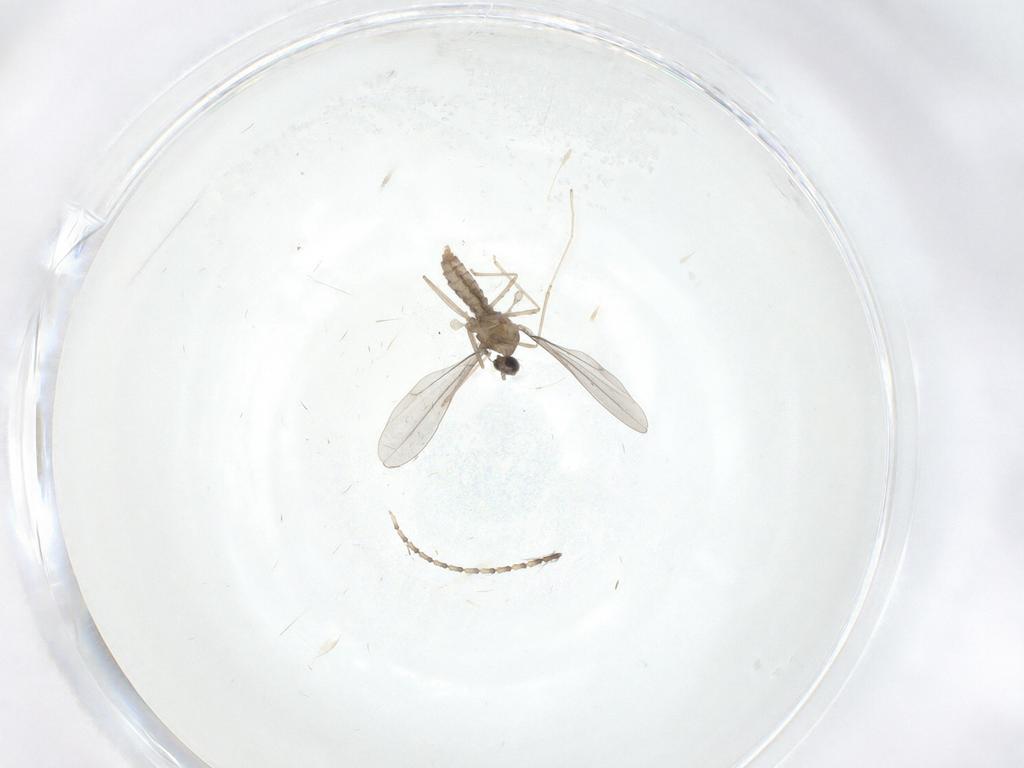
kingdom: Animalia
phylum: Arthropoda
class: Insecta
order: Diptera
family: Cecidomyiidae
